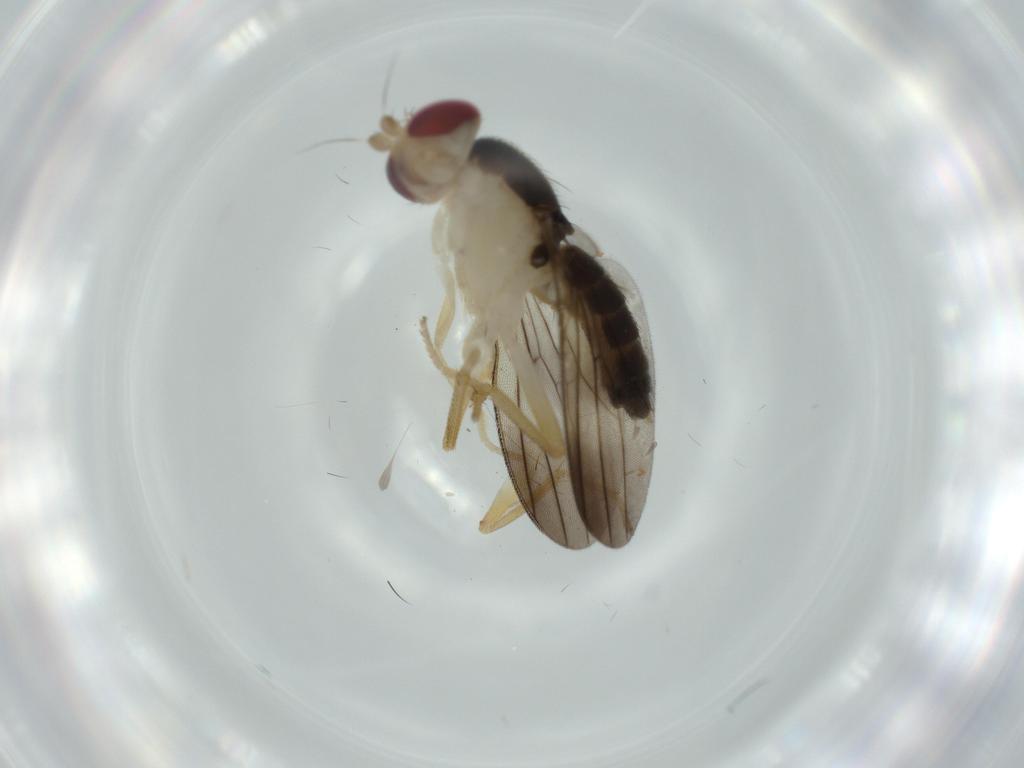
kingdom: Animalia
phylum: Arthropoda
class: Insecta
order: Diptera
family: Clusiidae
